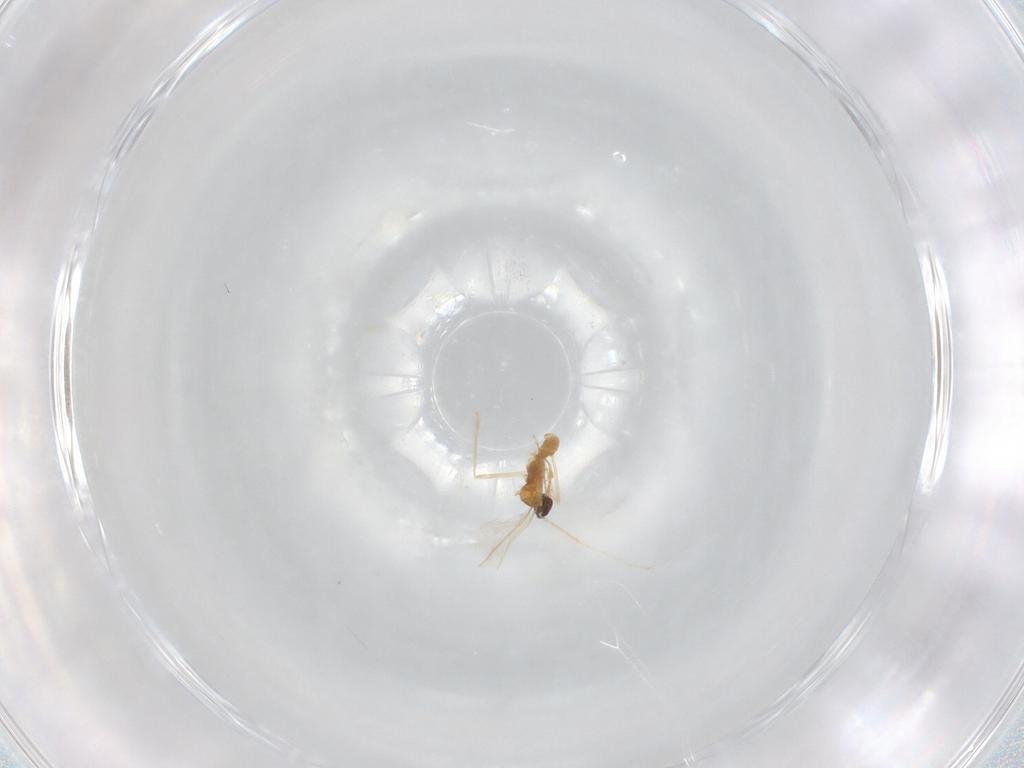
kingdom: Animalia
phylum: Arthropoda
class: Insecta
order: Diptera
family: Cecidomyiidae
